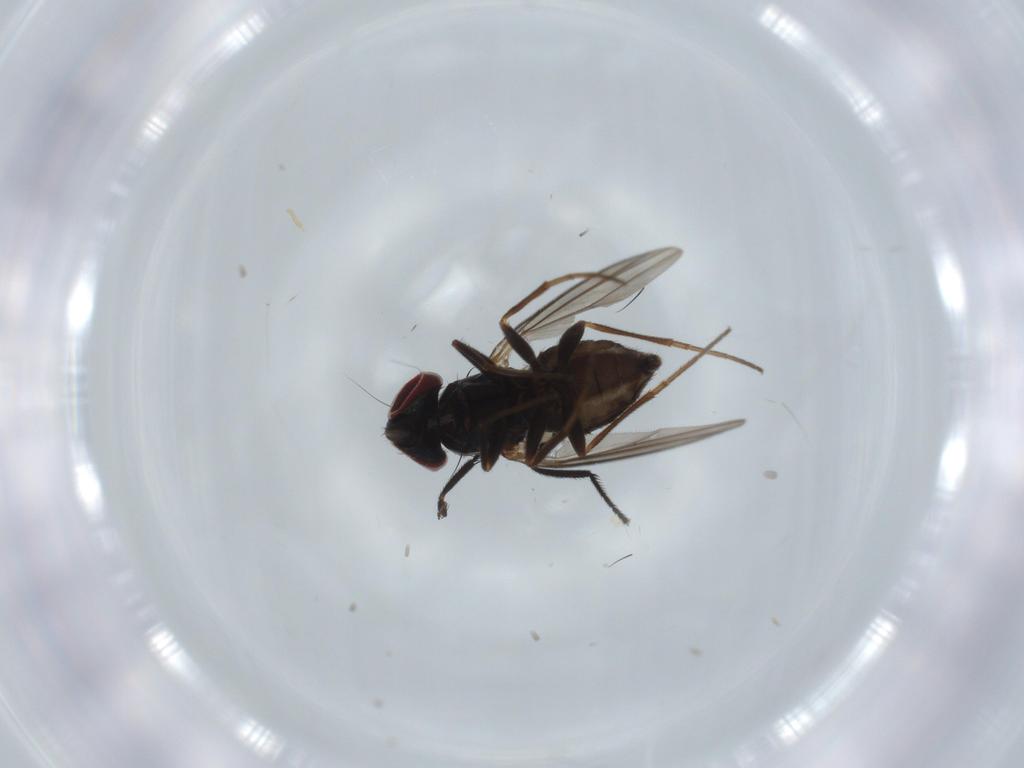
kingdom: Animalia
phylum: Arthropoda
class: Insecta
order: Diptera
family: Dolichopodidae
